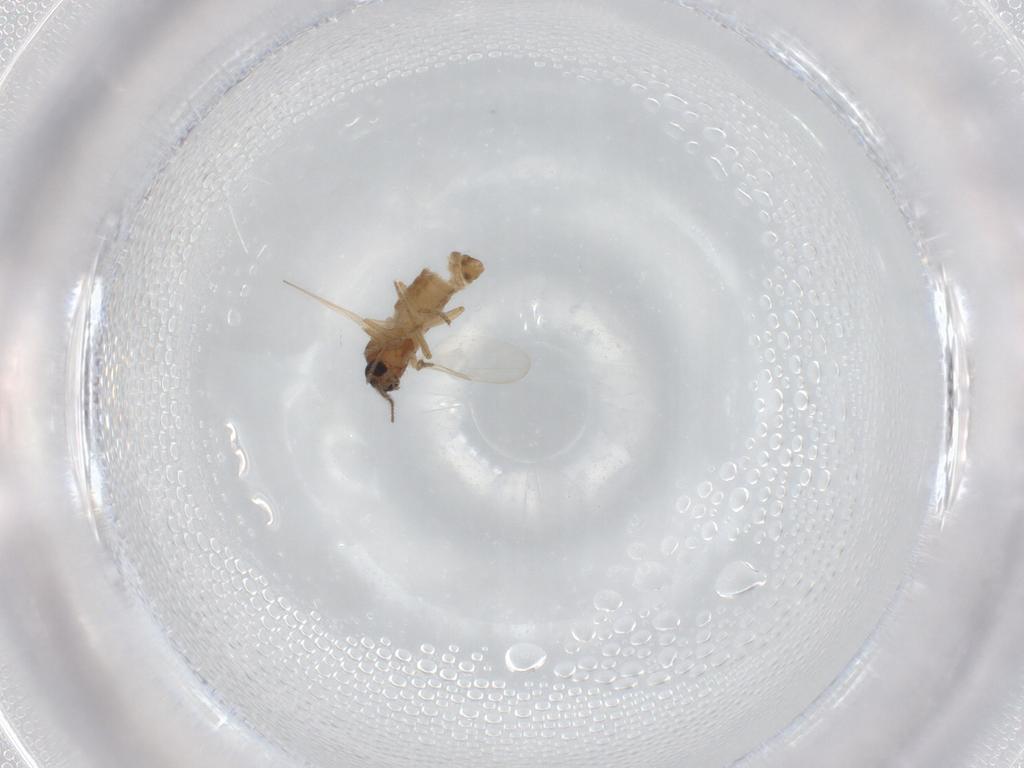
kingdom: Animalia
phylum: Arthropoda
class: Insecta
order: Diptera
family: Ceratopogonidae
